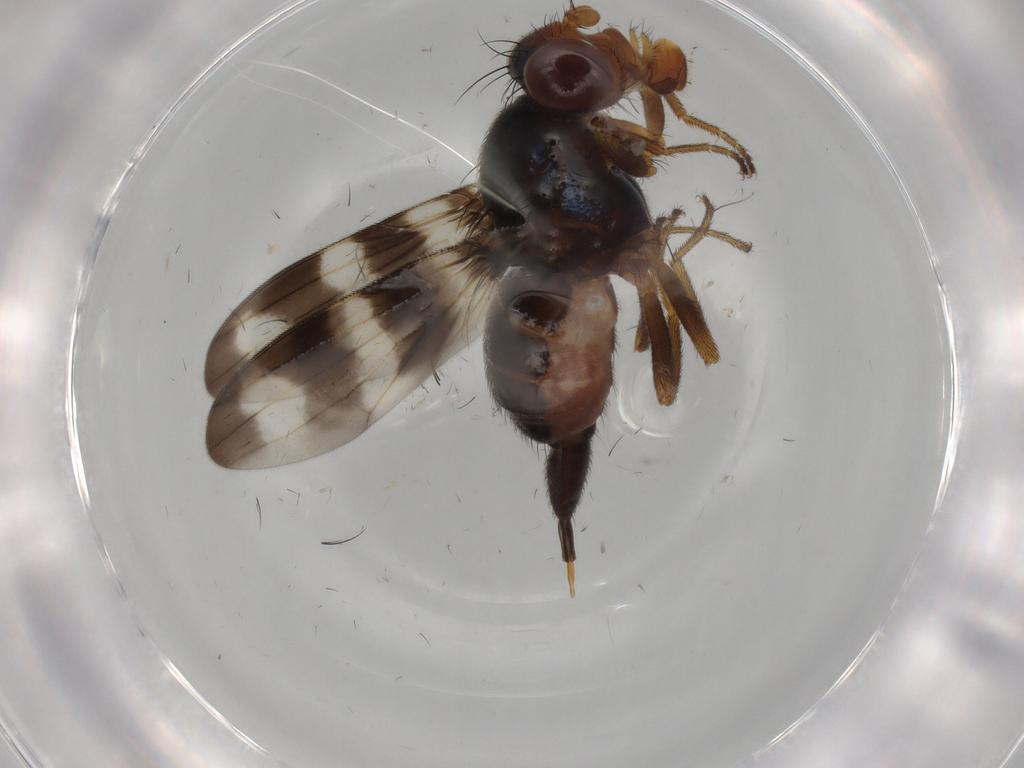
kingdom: Animalia
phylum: Arthropoda
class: Insecta
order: Diptera
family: Ulidiidae
